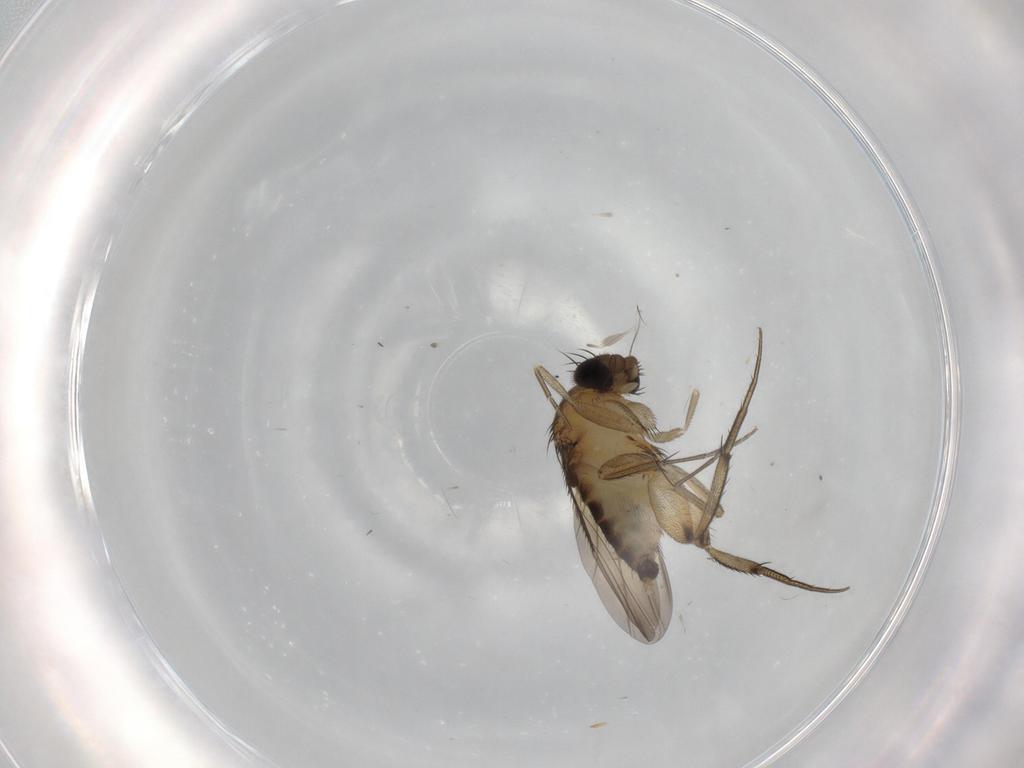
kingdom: Animalia
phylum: Arthropoda
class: Insecta
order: Diptera
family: Phoridae
